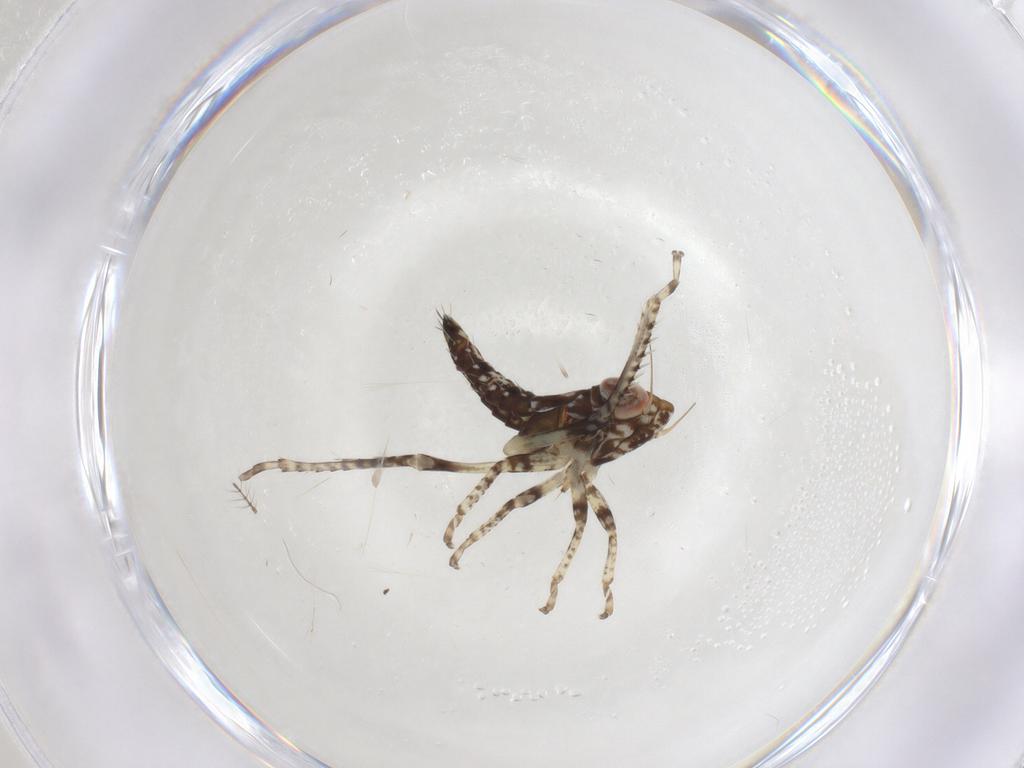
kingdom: Animalia
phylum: Arthropoda
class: Insecta
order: Hemiptera
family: Cicadellidae
